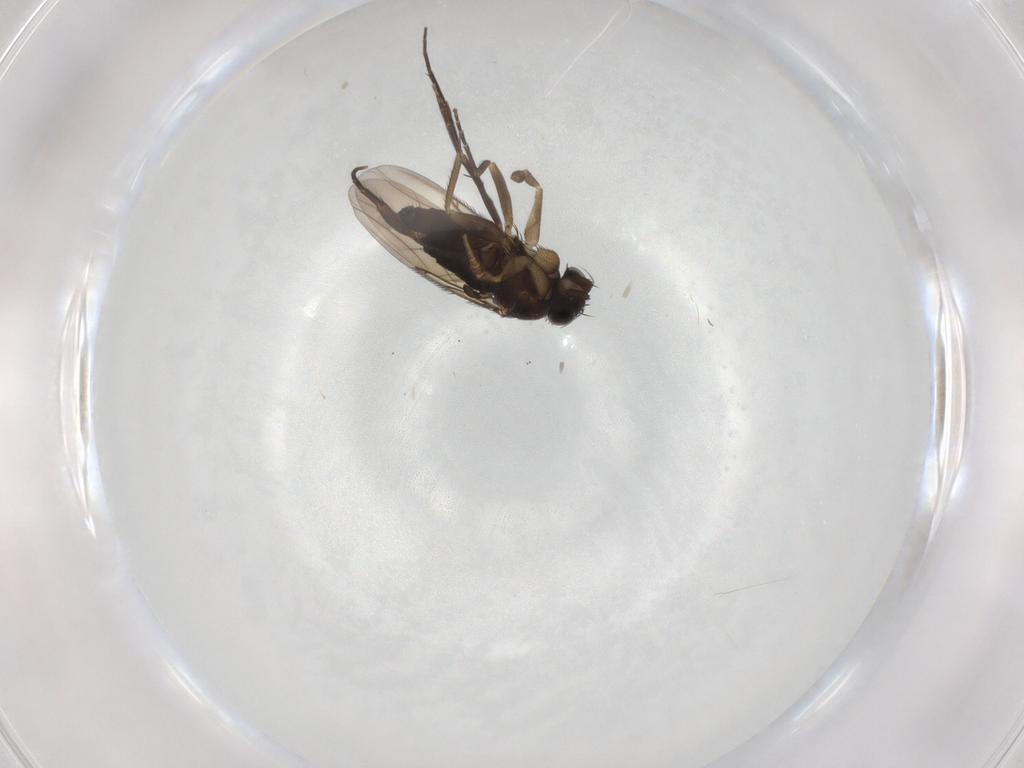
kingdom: Animalia
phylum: Arthropoda
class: Insecta
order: Diptera
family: Phoridae
